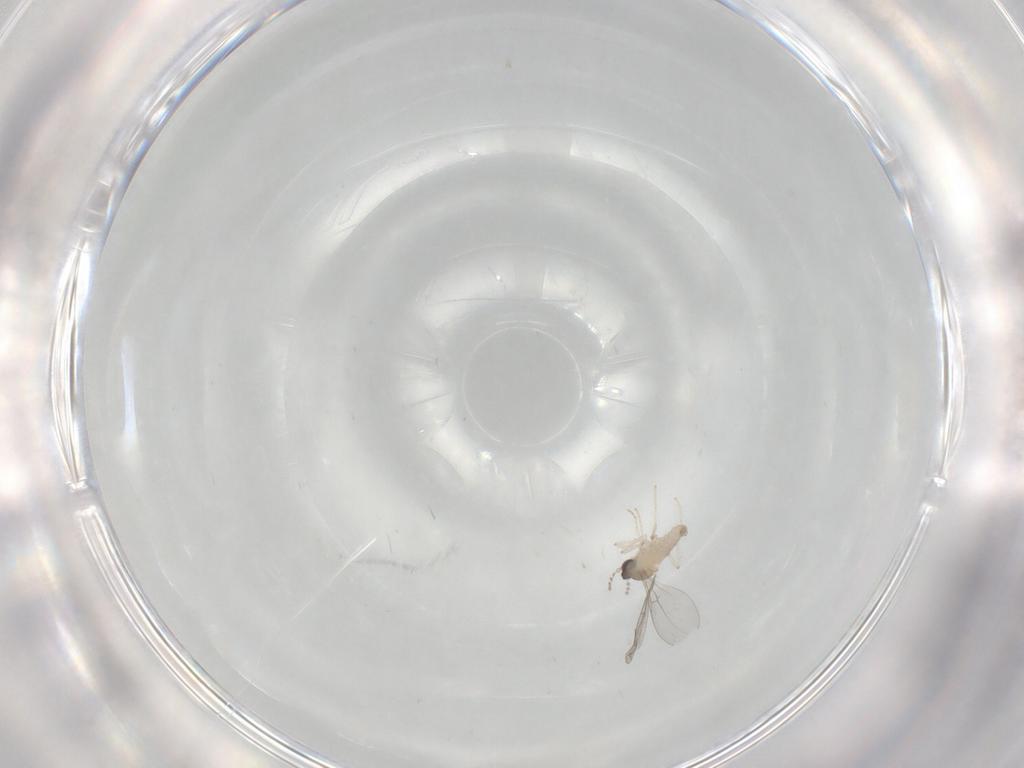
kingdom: Animalia
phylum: Arthropoda
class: Insecta
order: Diptera
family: Cecidomyiidae
